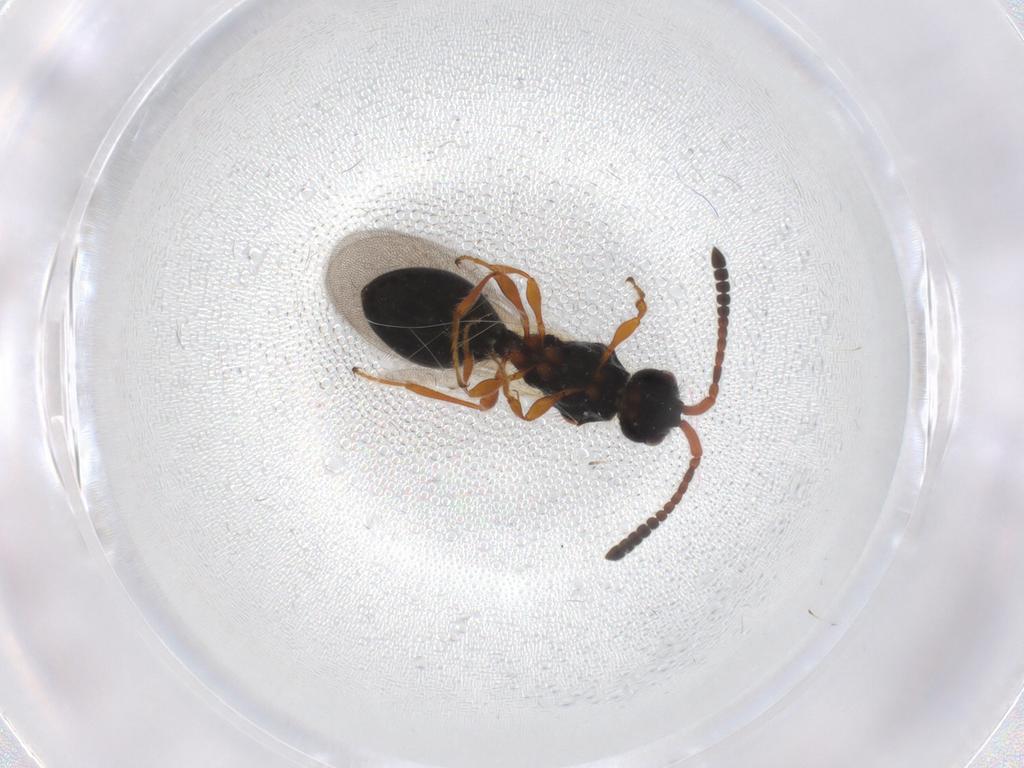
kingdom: Animalia
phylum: Arthropoda
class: Insecta
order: Hymenoptera
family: Diapriidae
